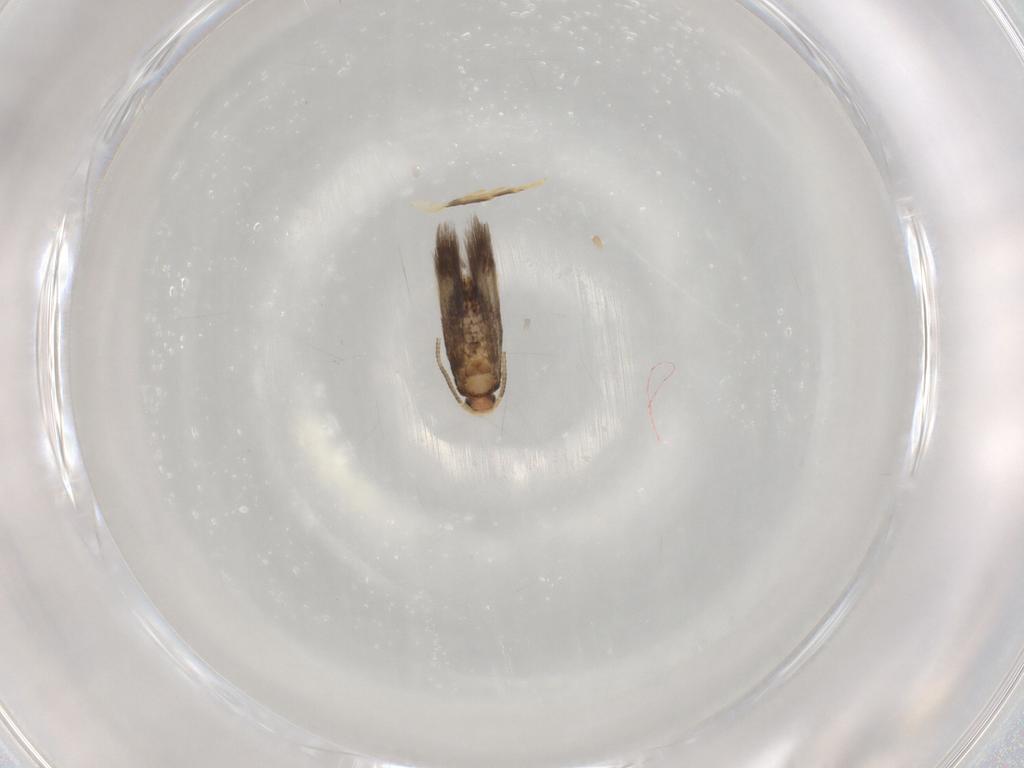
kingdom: Animalia
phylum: Arthropoda
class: Insecta
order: Lepidoptera
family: Nepticulidae
